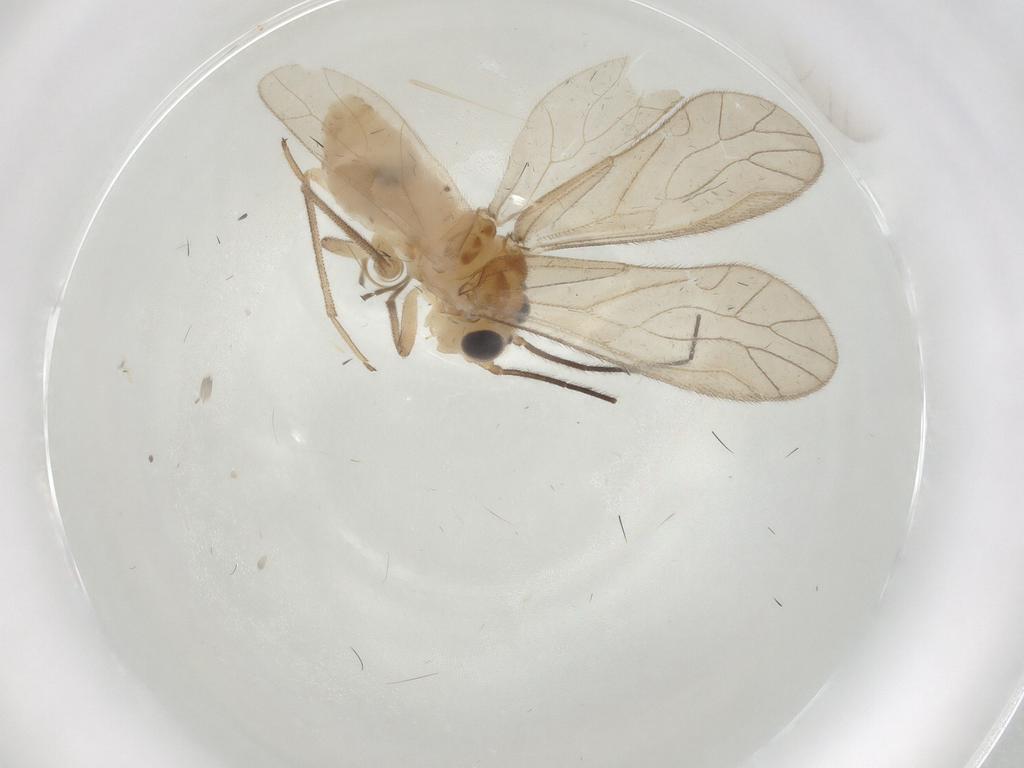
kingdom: Animalia
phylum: Arthropoda
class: Insecta
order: Psocodea
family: Caeciliusidae
